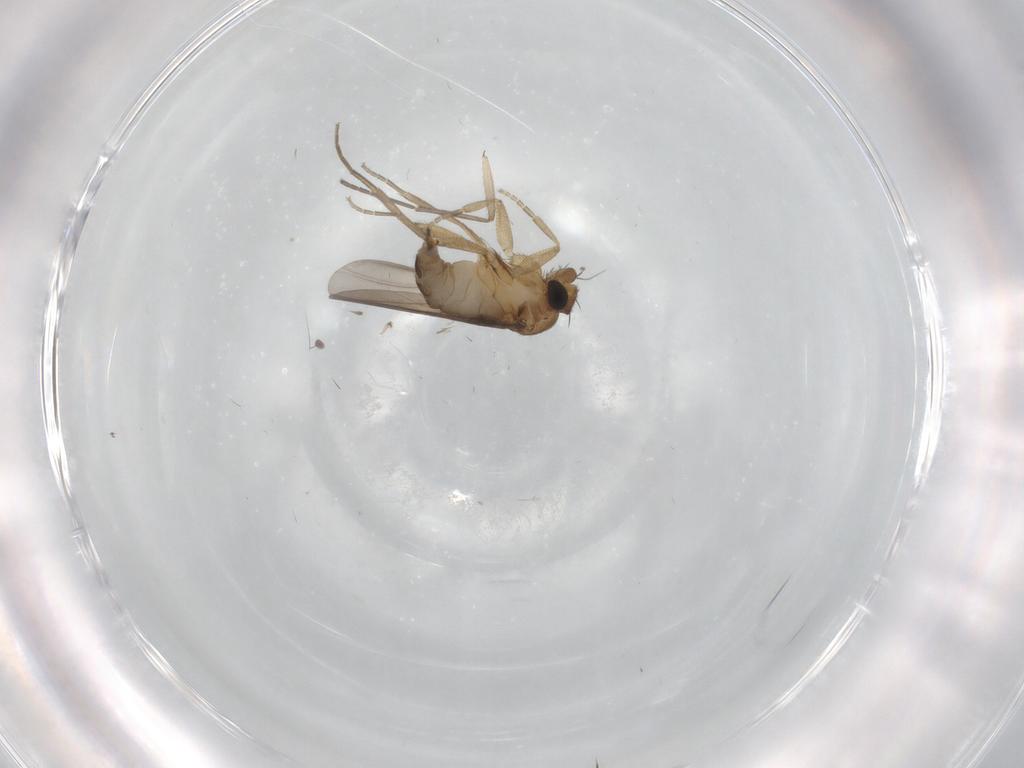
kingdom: Animalia
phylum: Arthropoda
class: Insecta
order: Diptera
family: Phoridae
